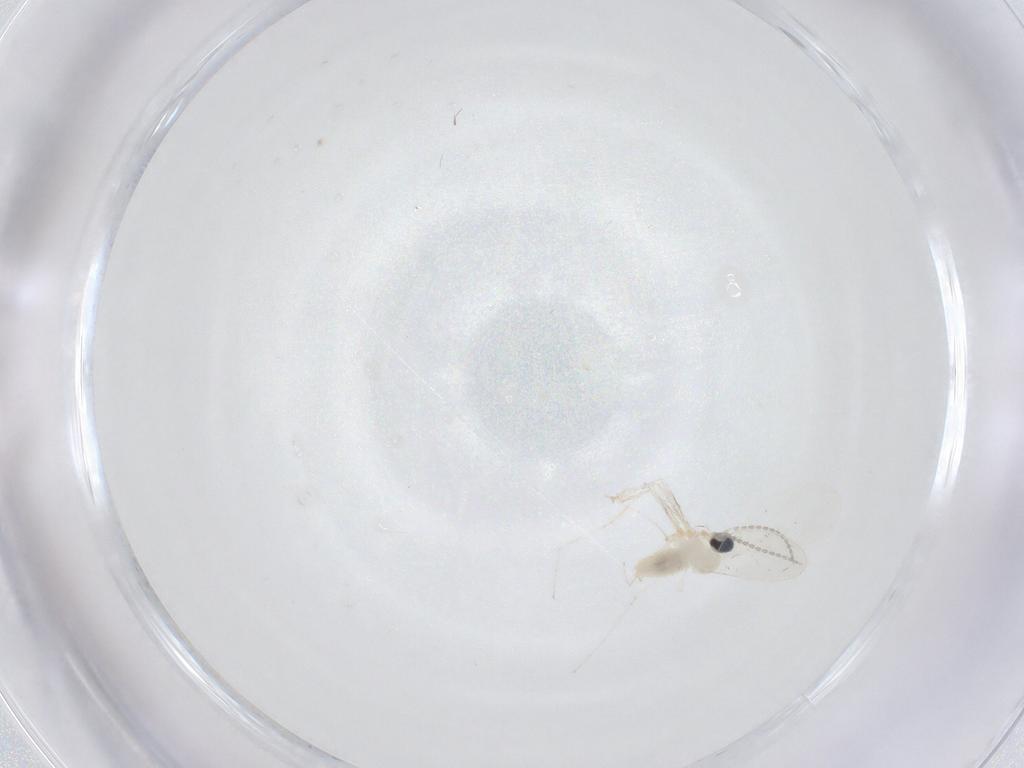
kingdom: Animalia
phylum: Arthropoda
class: Insecta
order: Diptera
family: Cecidomyiidae
